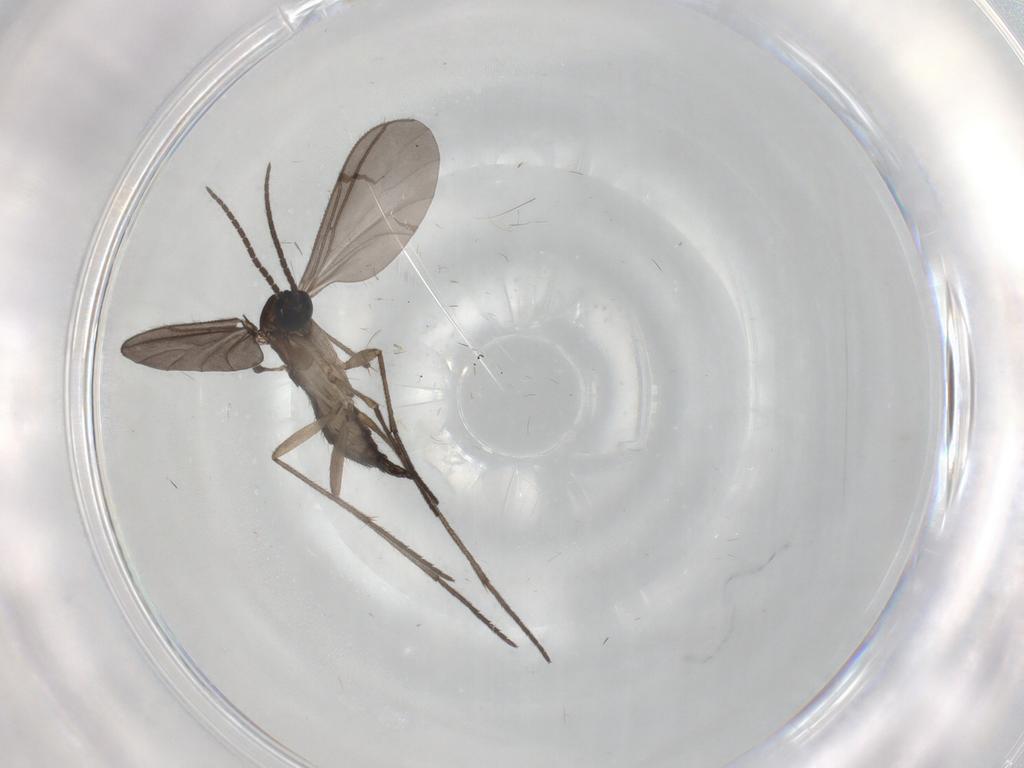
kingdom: Animalia
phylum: Arthropoda
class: Insecta
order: Diptera
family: Sciaridae
